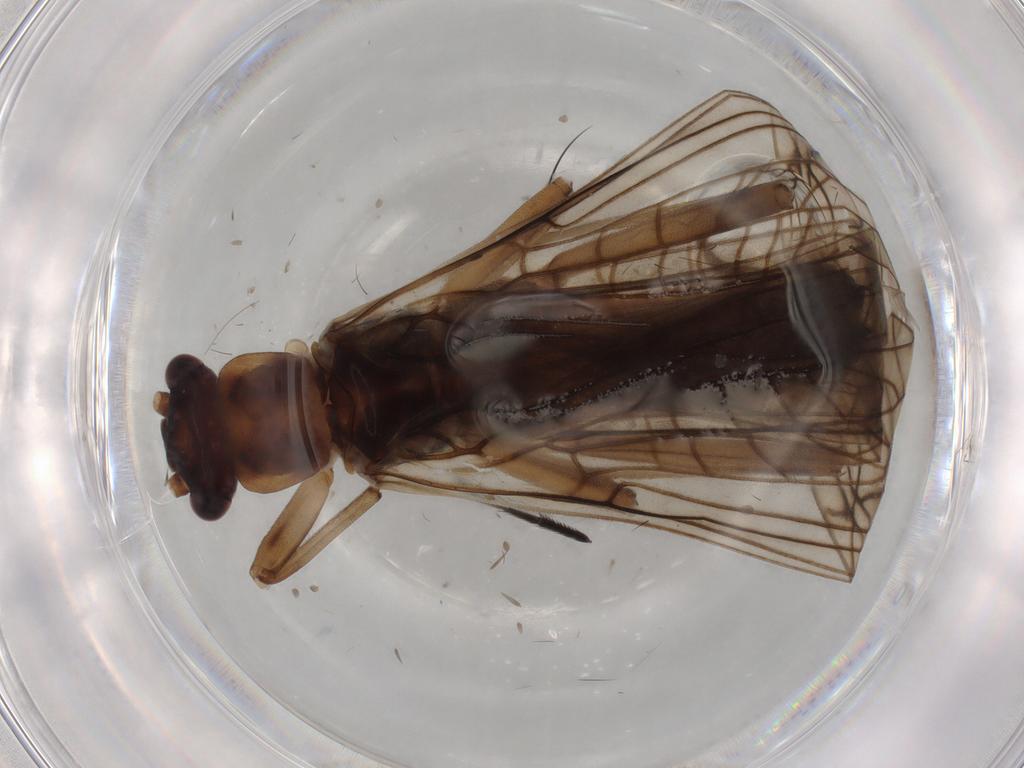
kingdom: Animalia
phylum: Arthropoda
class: Insecta
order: Plecoptera
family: Nemouridae
